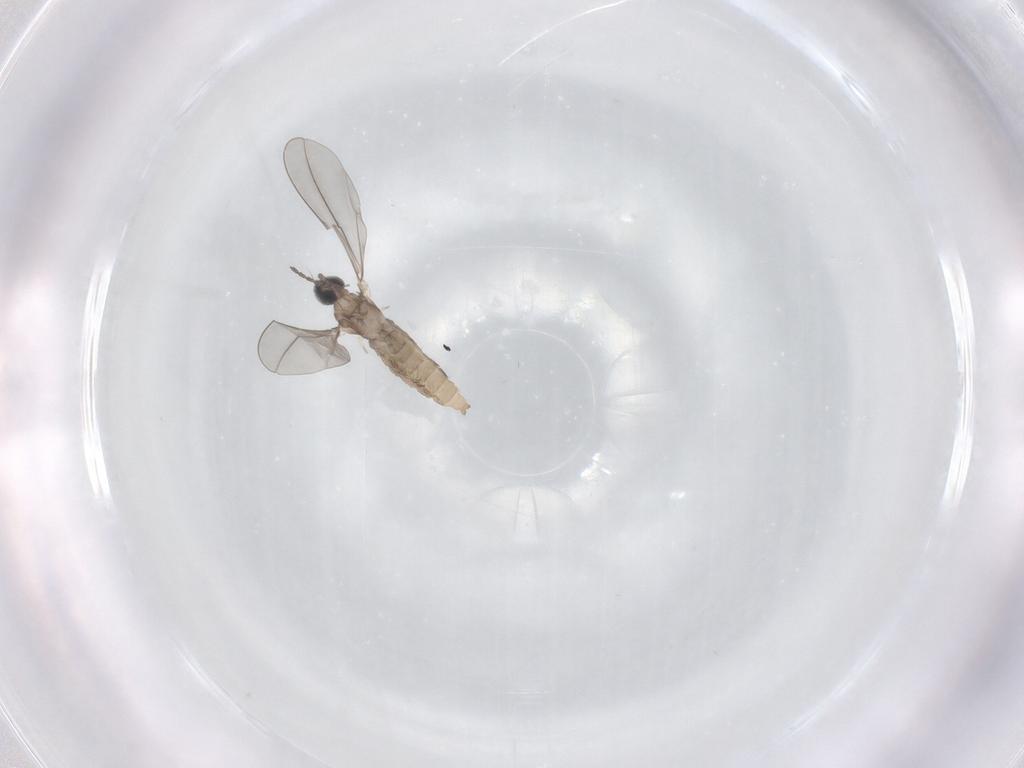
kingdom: Animalia
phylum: Arthropoda
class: Insecta
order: Diptera
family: Cecidomyiidae
